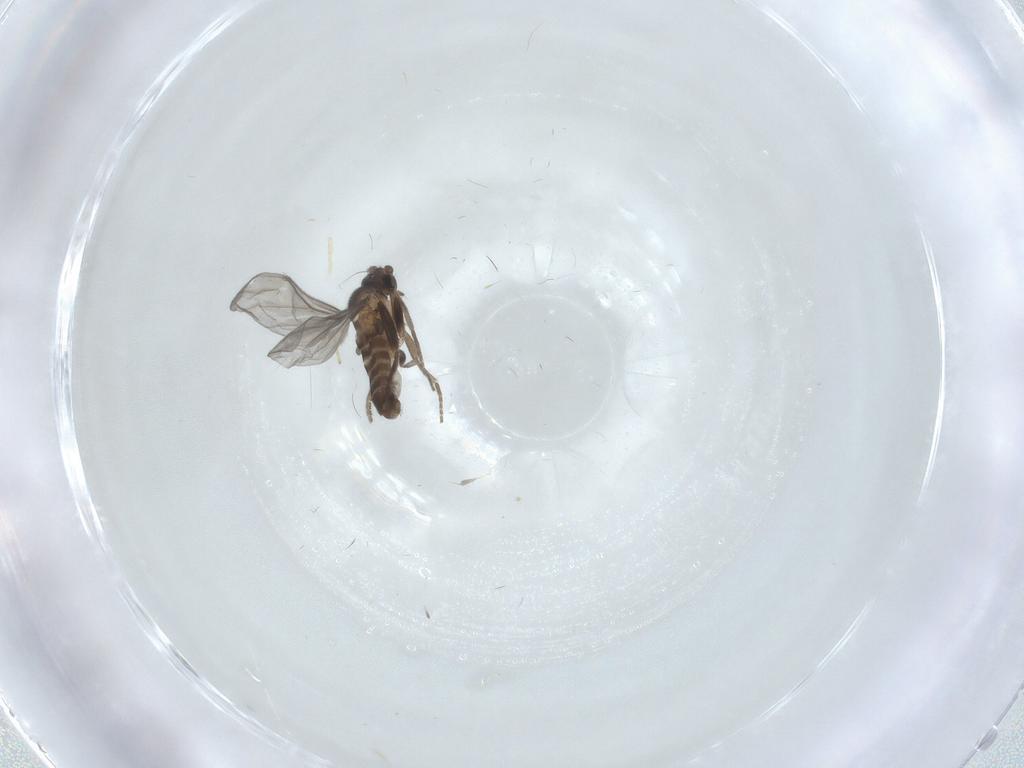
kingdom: Animalia
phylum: Arthropoda
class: Insecta
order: Diptera
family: Phoridae
